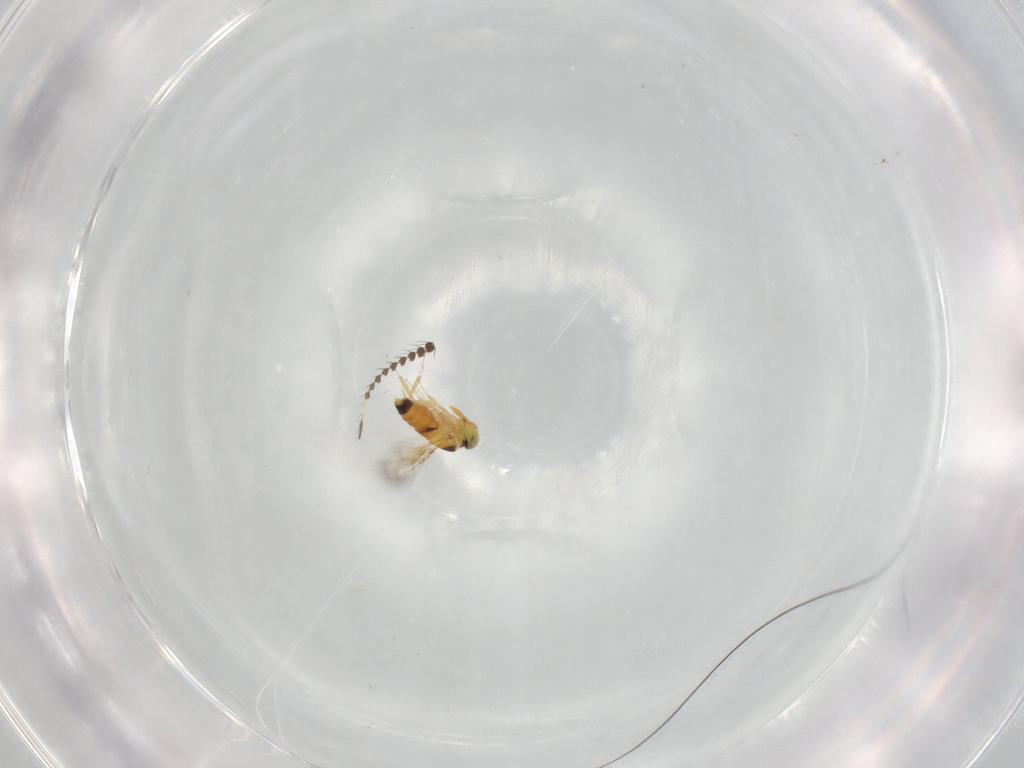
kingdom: Animalia
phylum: Arthropoda
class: Insecta
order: Hymenoptera
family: Signiphoridae
